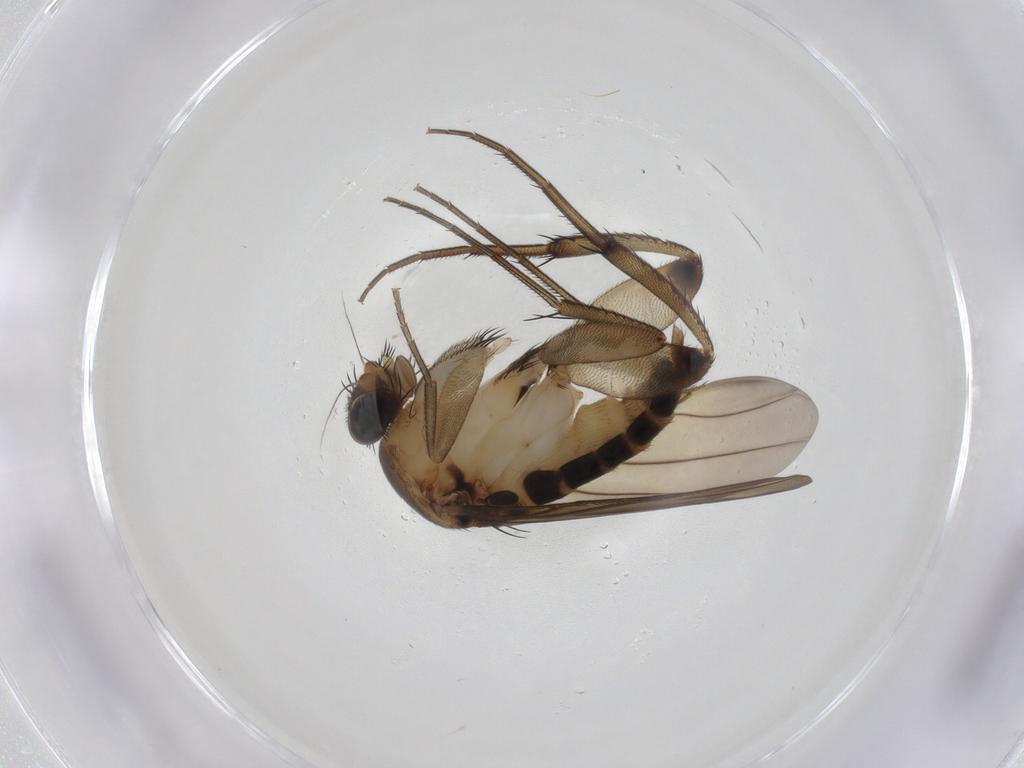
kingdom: Animalia
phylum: Arthropoda
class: Insecta
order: Diptera
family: Phoridae
